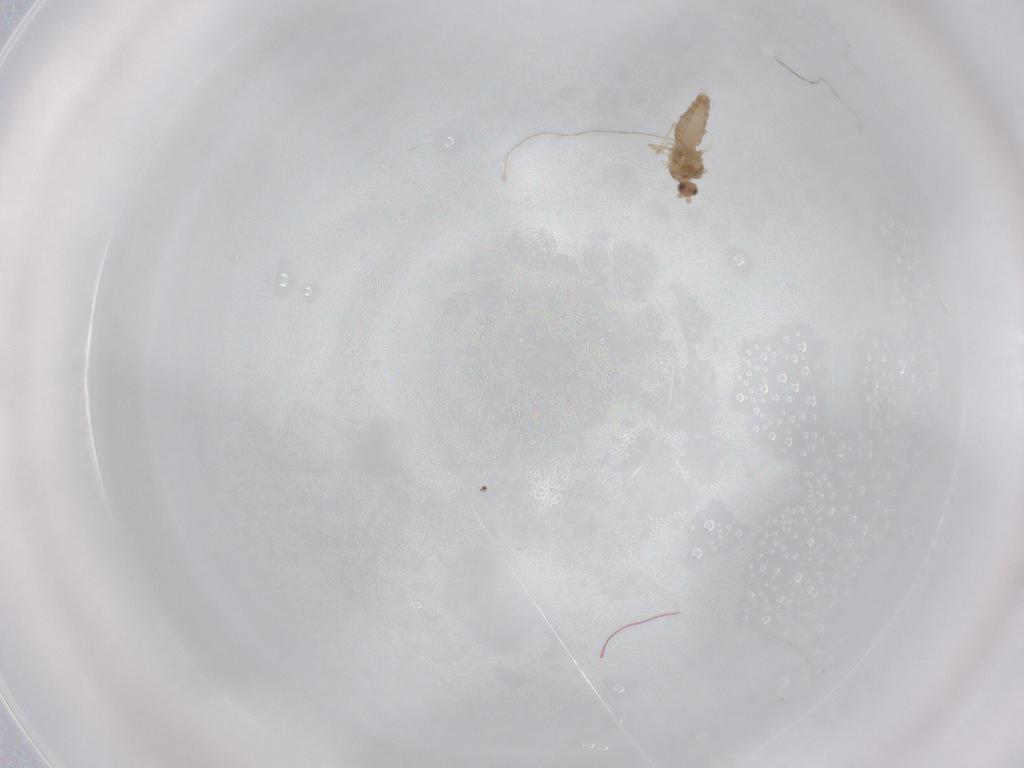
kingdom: Animalia
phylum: Arthropoda
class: Insecta
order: Diptera
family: Cecidomyiidae
